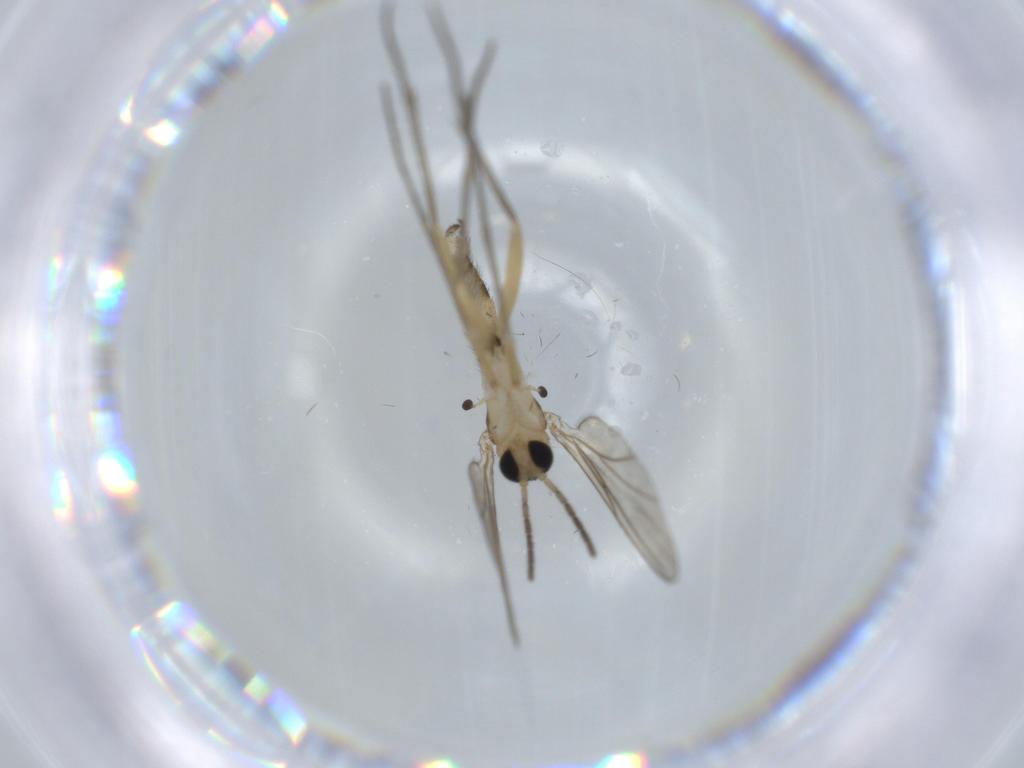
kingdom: Animalia
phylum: Arthropoda
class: Insecta
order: Diptera
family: Sciaridae
